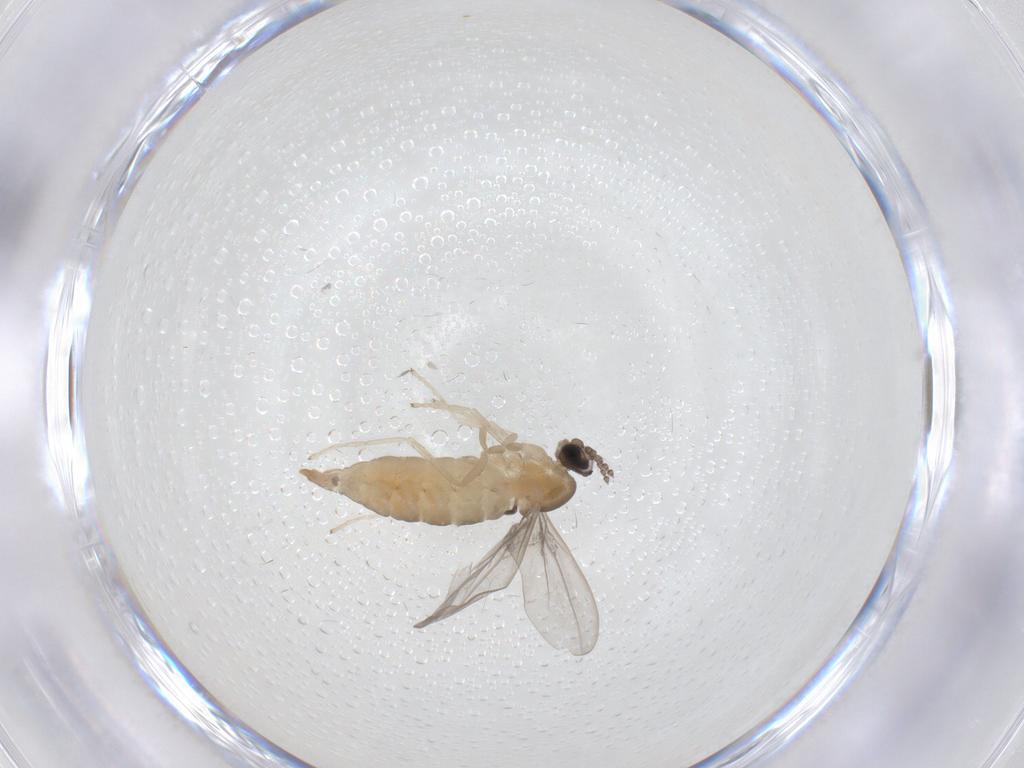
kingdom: Animalia
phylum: Arthropoda
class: Insecta
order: Diptera
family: Cecidomyiidae
